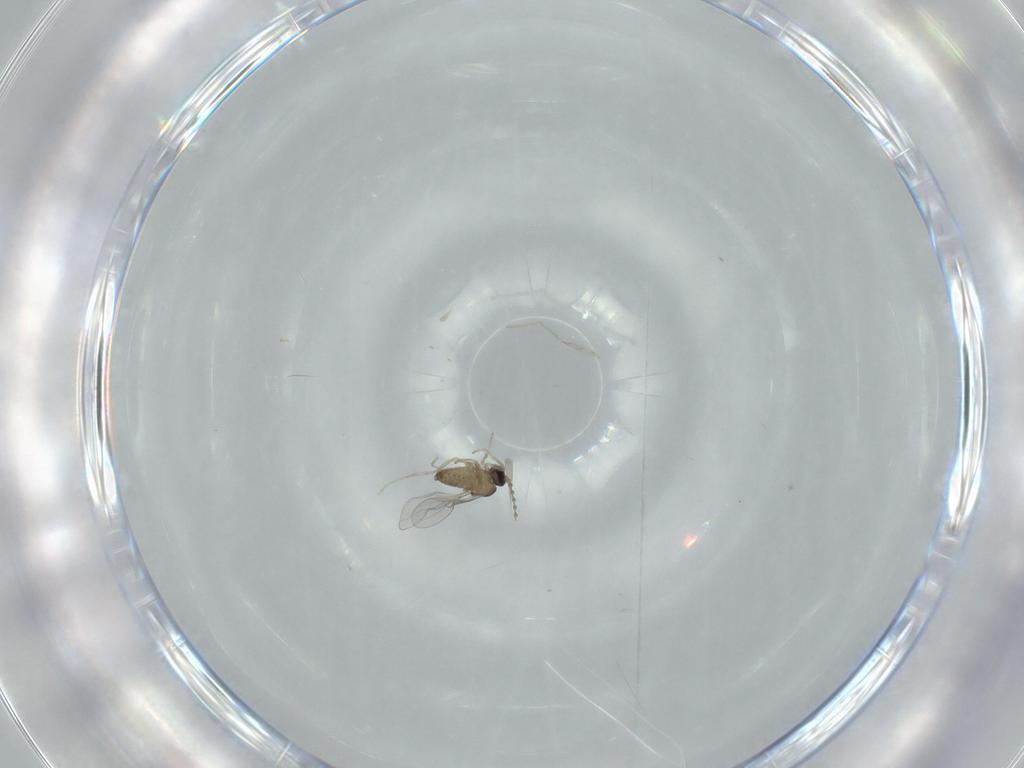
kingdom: Animalia
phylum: Arthropoda
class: Insecta
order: Diptera
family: Cecidomyiidae
